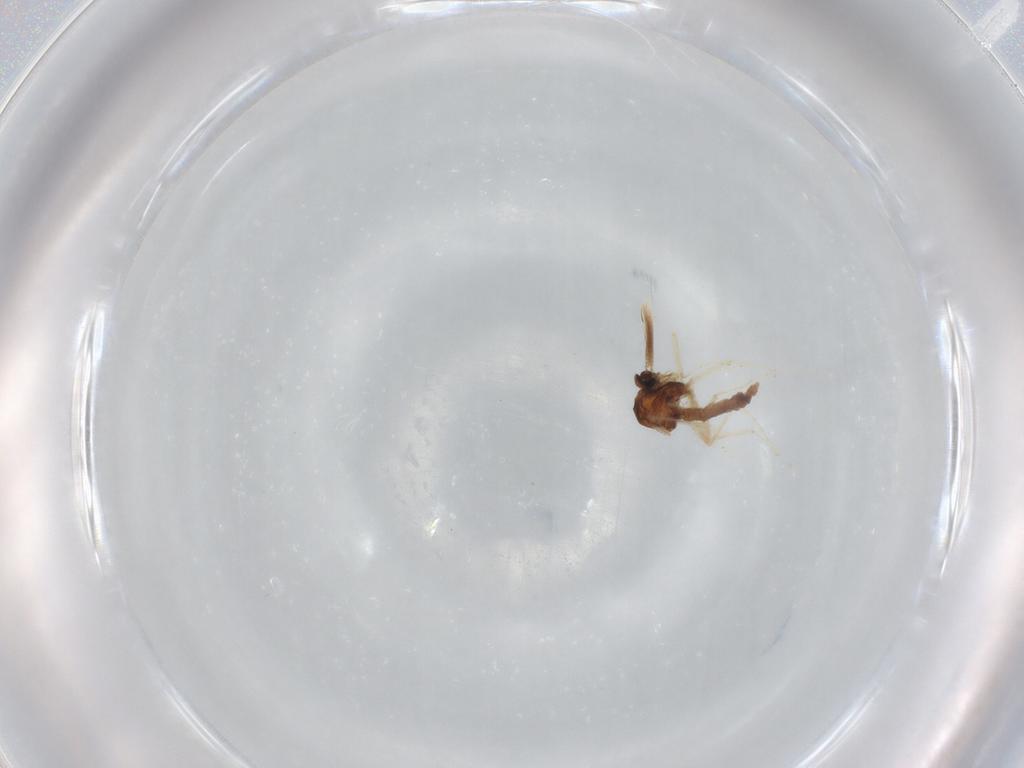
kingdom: Animalia
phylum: Arthropoda
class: Insecta
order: Diptera
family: Ceratopogonidae
